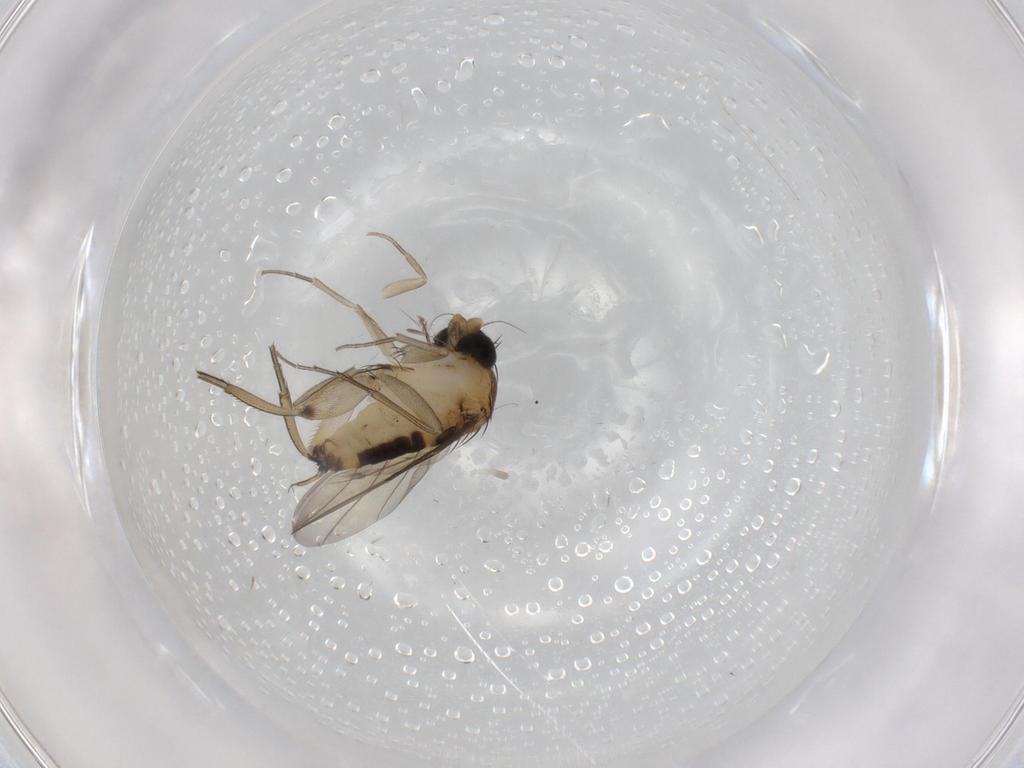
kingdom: Animalia
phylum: Arthropoda
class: Insecta
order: Diptera
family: Phoridae
